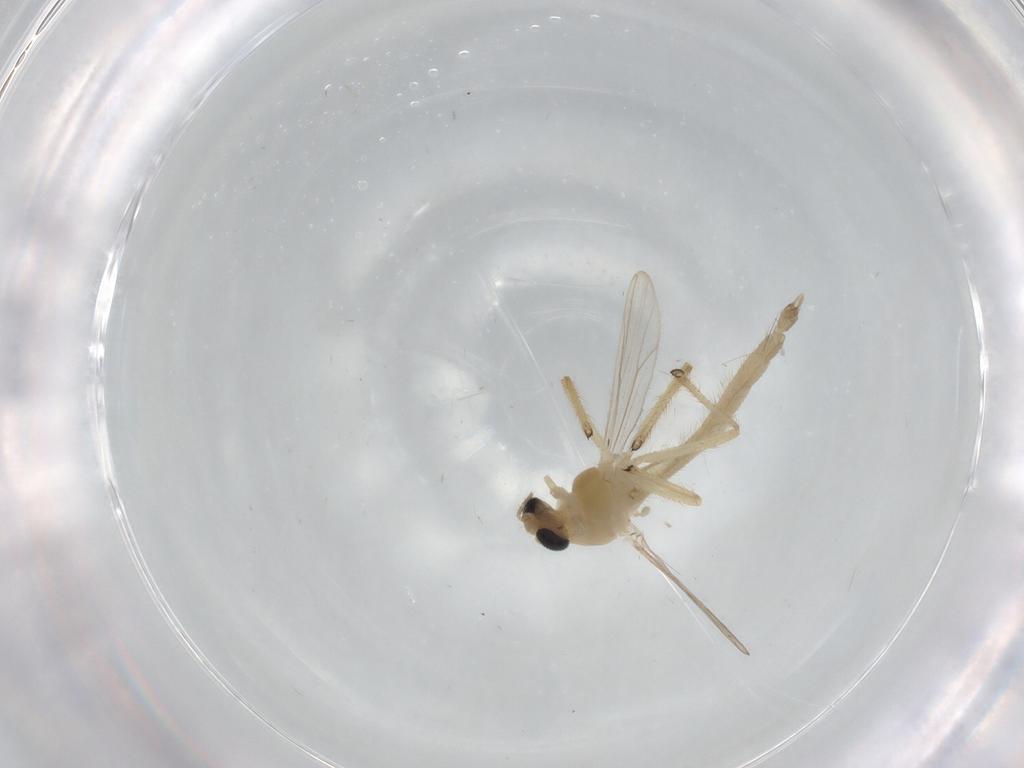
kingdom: Animalia
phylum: Arthropoda
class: Insecta
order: Diptera
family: Chironomidae
